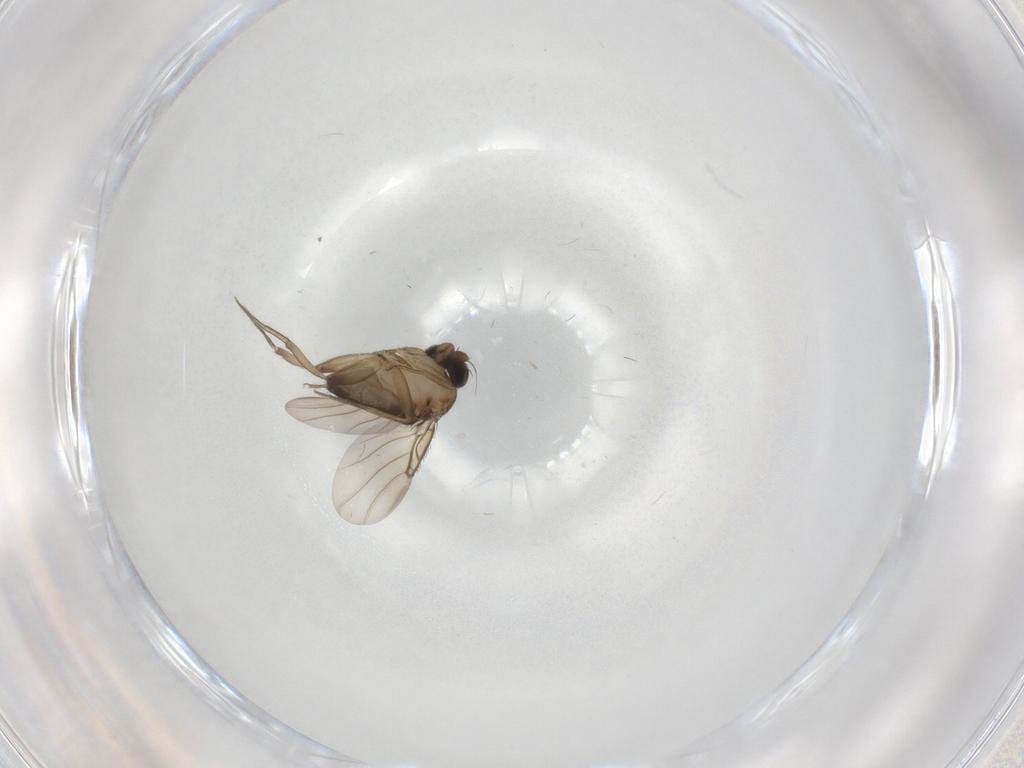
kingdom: Animalia
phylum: Arthropoda
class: Insecta
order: Diptera
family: Phoridae
